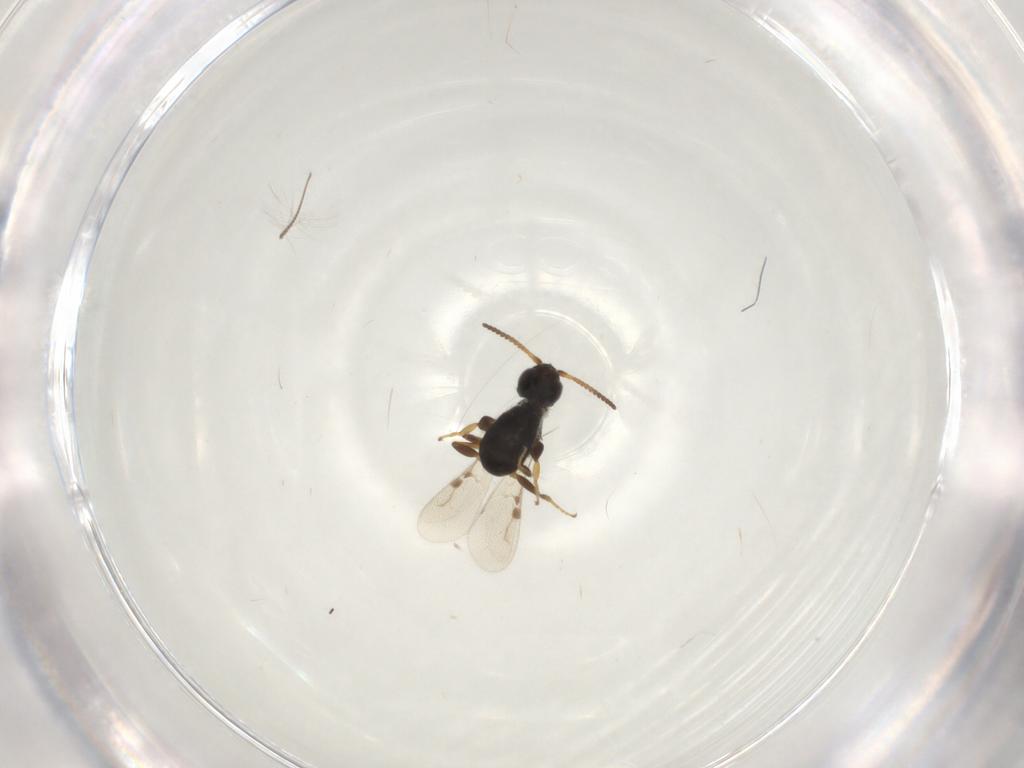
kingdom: Animalia
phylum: Arthropoda
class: Insecta
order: Hymenoptera
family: Bethylidae
